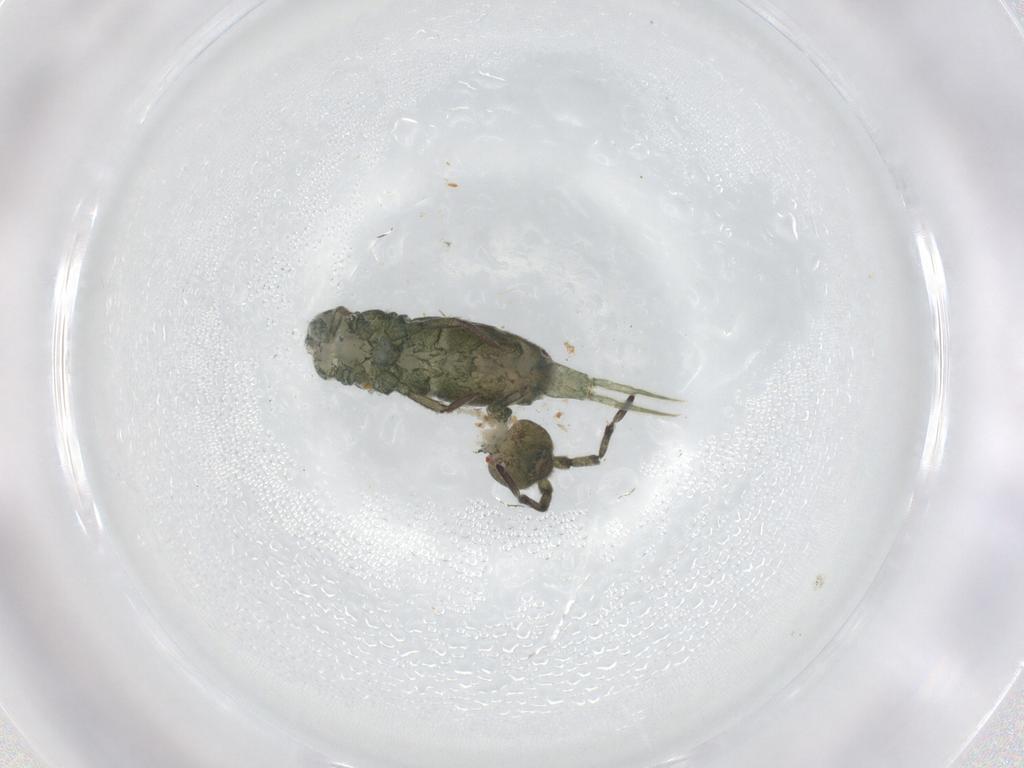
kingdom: Animalia
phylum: Arthropoda
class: Collembola
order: Entomobryomorpha
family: Isotomidae
